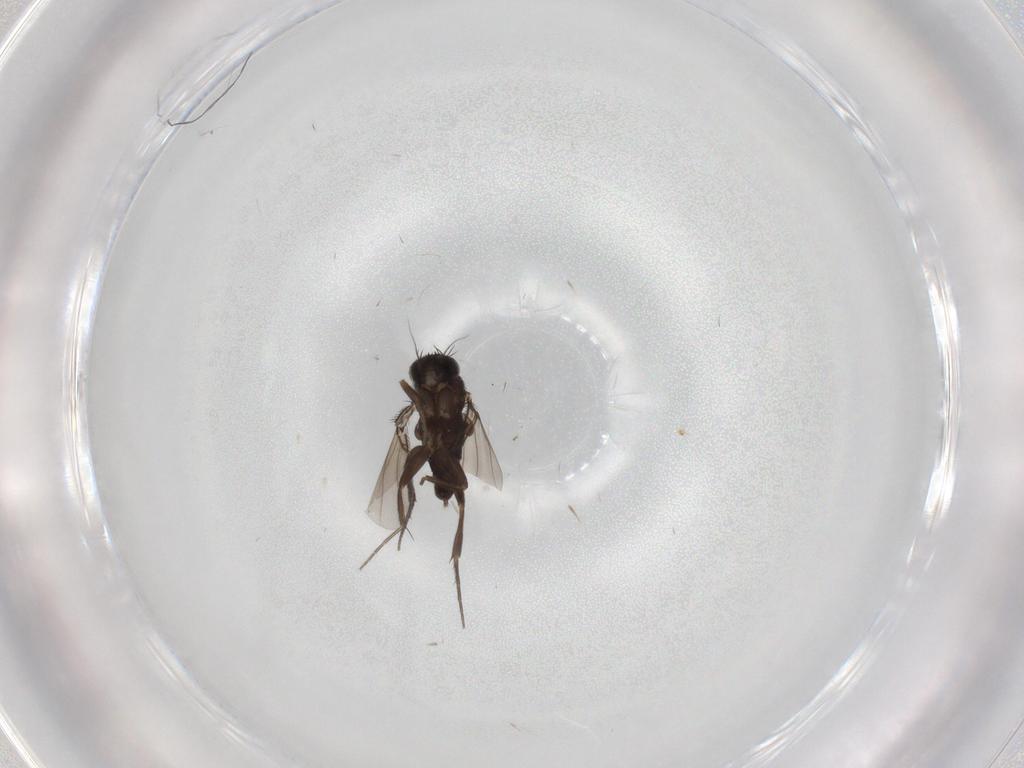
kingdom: Animalia
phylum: Arthropoda
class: Insecta
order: Diptera
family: Phoridae
